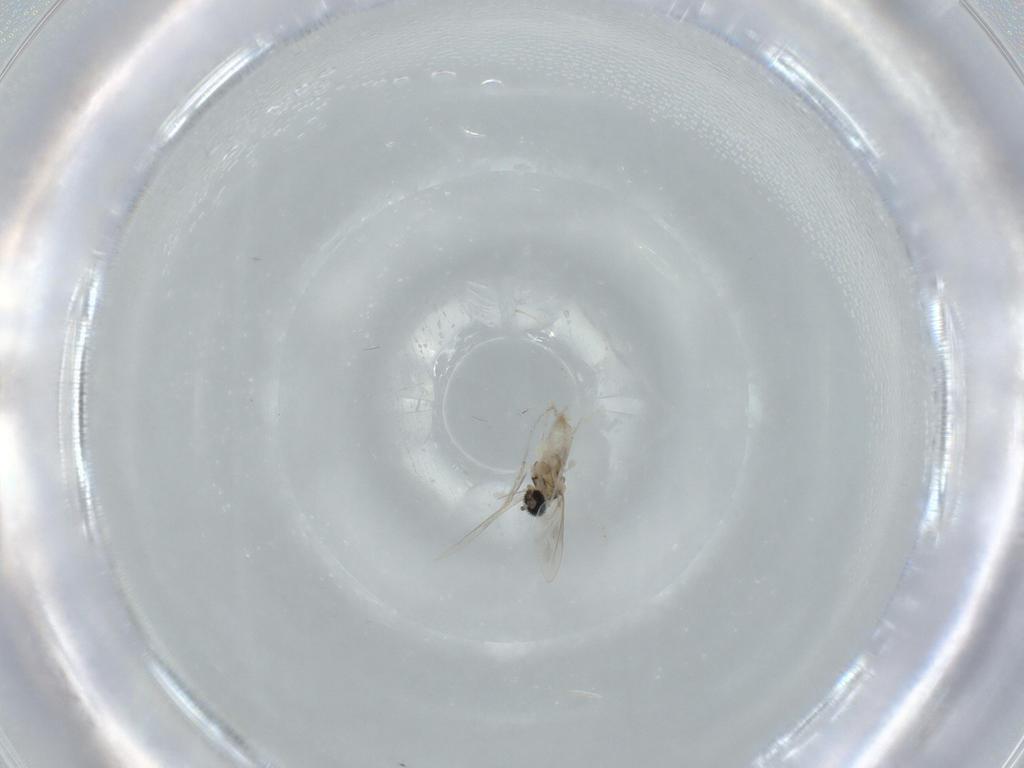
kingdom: Animalia
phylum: Arthropoda
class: Insecta
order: Diptera
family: Cecidomyiidae
